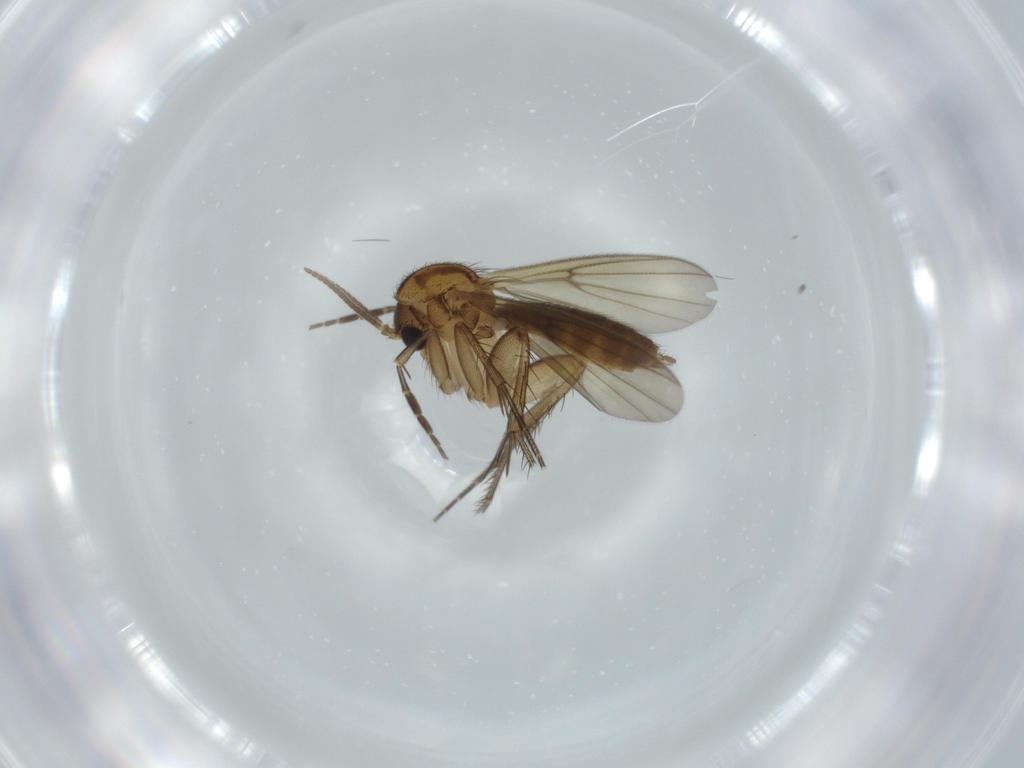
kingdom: Animalia
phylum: Arthropoda
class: Insecta
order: Diptera
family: Mycetophilidae
